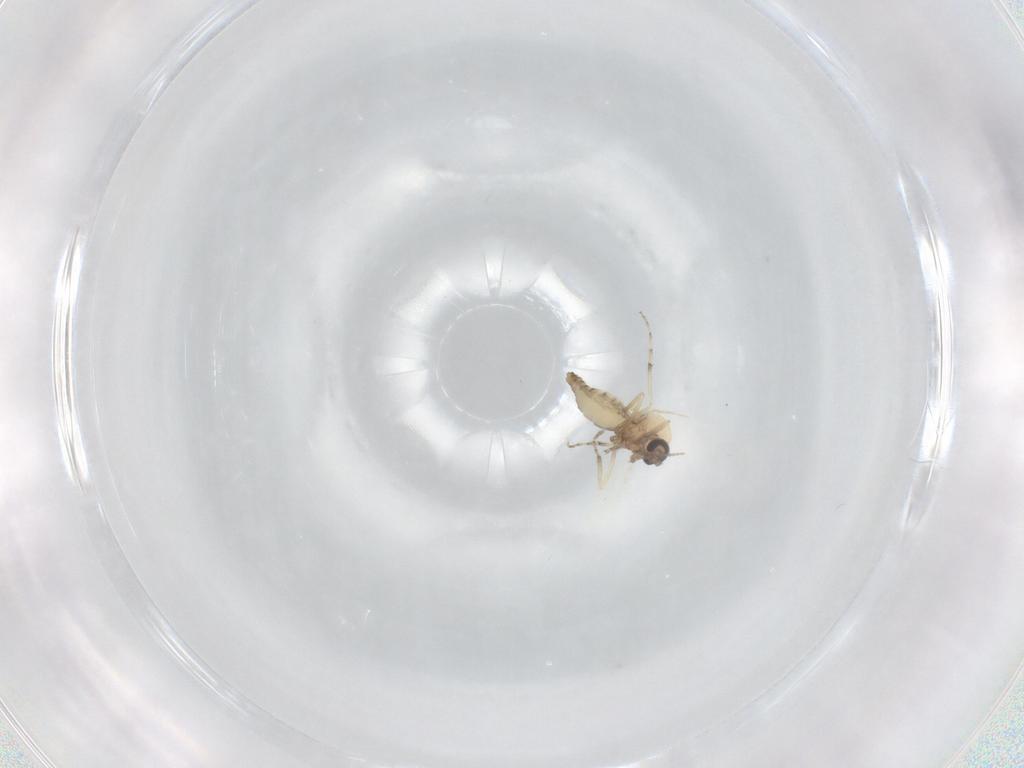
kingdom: Animalia
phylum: Arthropoda
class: Insecta
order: Diptera
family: Ceratopogonidae
